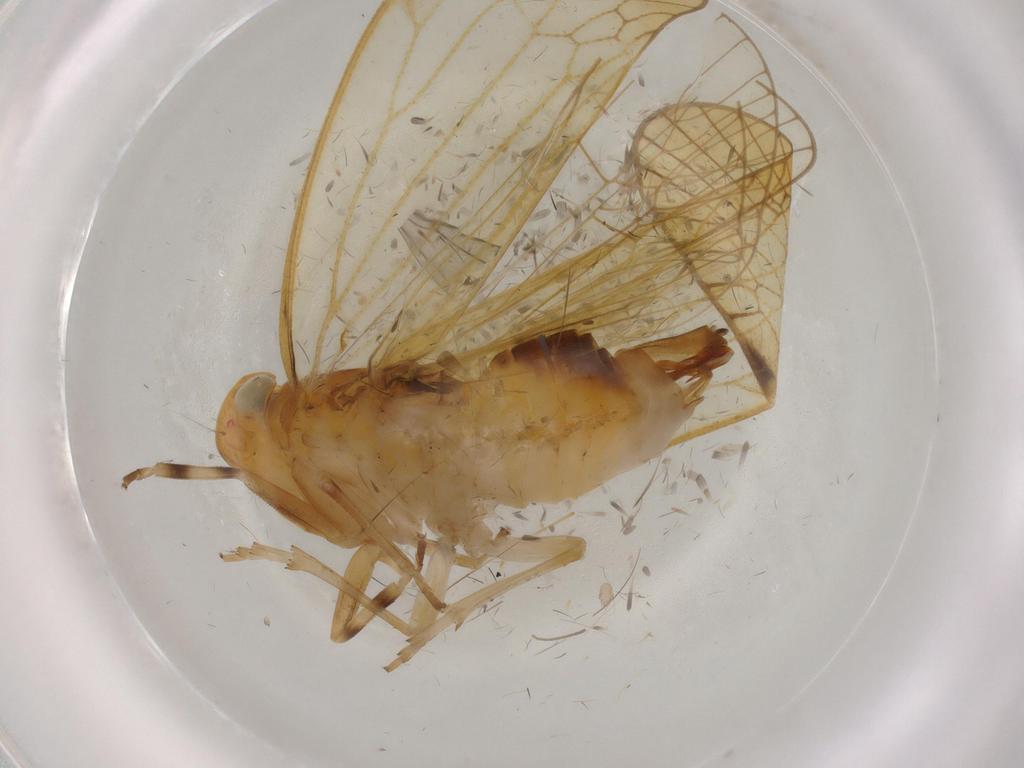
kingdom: Animalia
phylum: Arthropoda
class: Insecta
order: Hemiptera
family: Cixiidae
